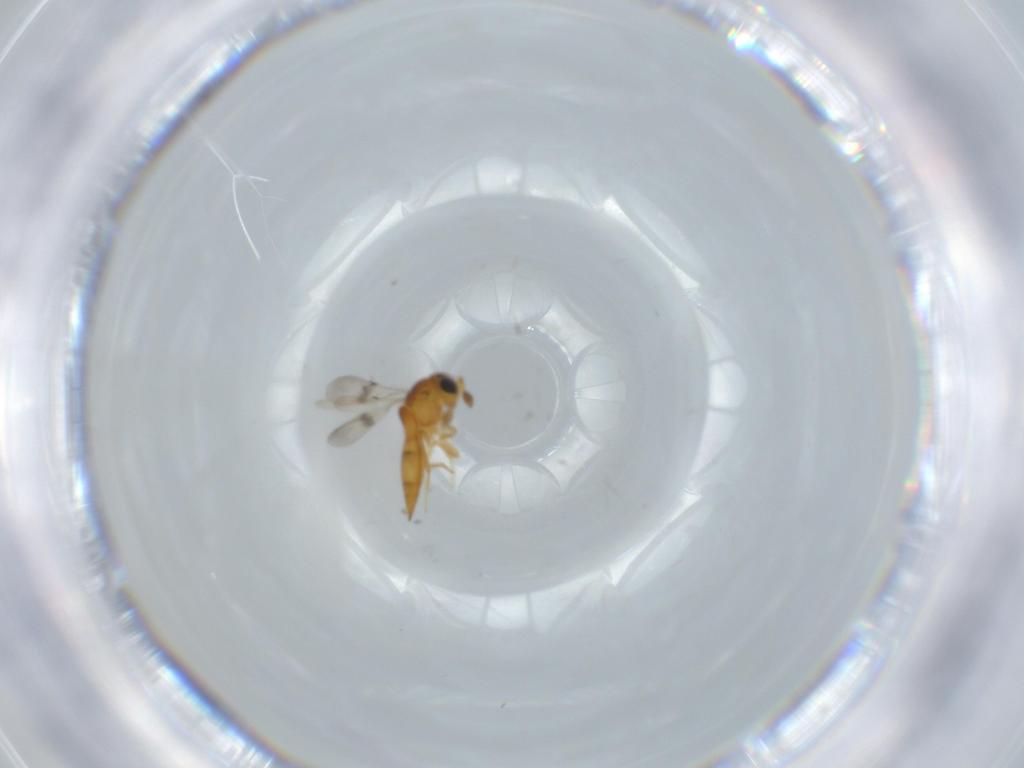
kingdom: Animalia
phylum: Arthropoda
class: Insecta
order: Hymenoptera
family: Scelionidae
